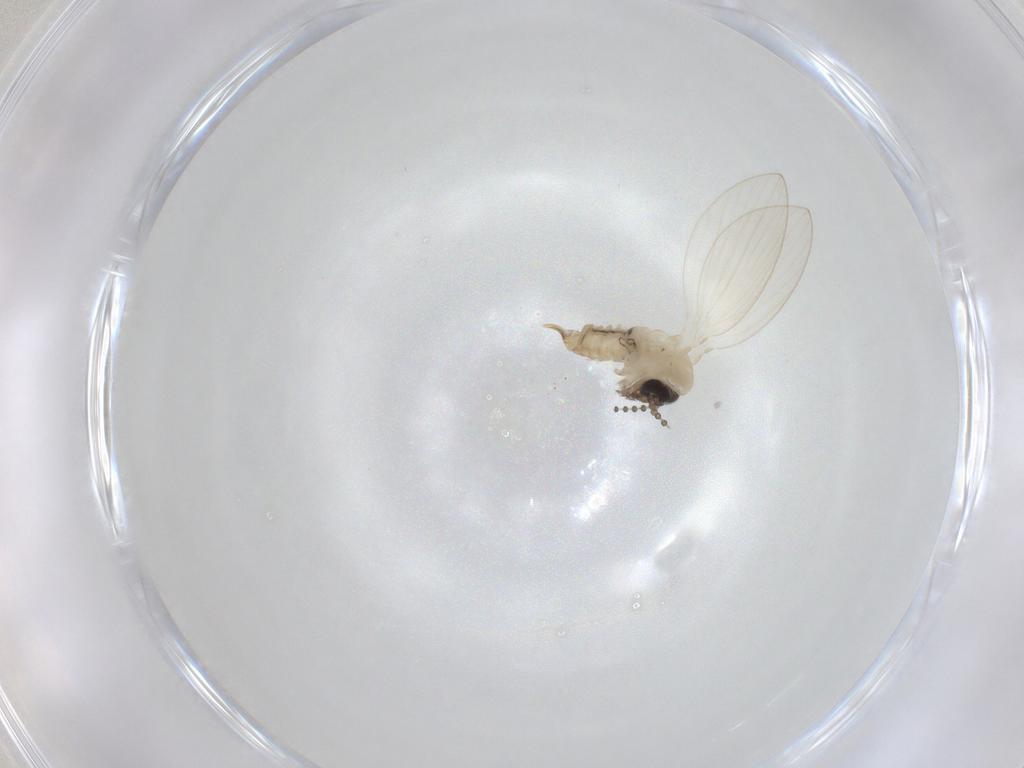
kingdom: Animalia
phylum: Arthropoda
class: Insecta
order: Diptera
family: Psychodidae
